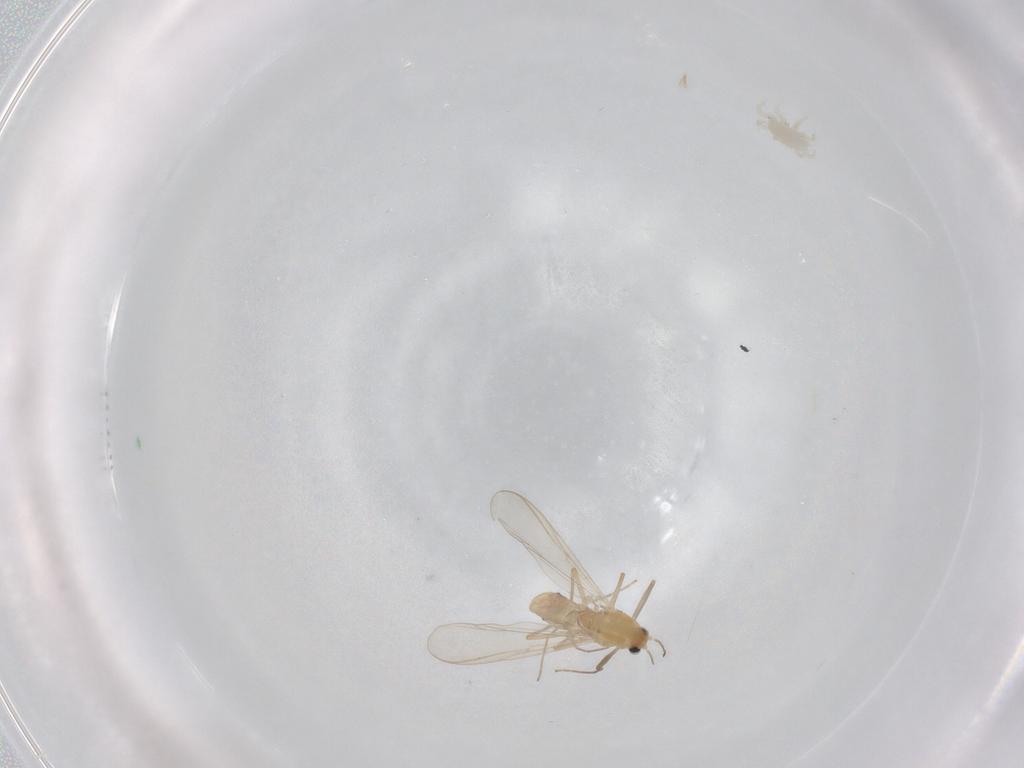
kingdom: Animalia
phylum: Arthropoda
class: Insecta
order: Diptera
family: Chironomidae
